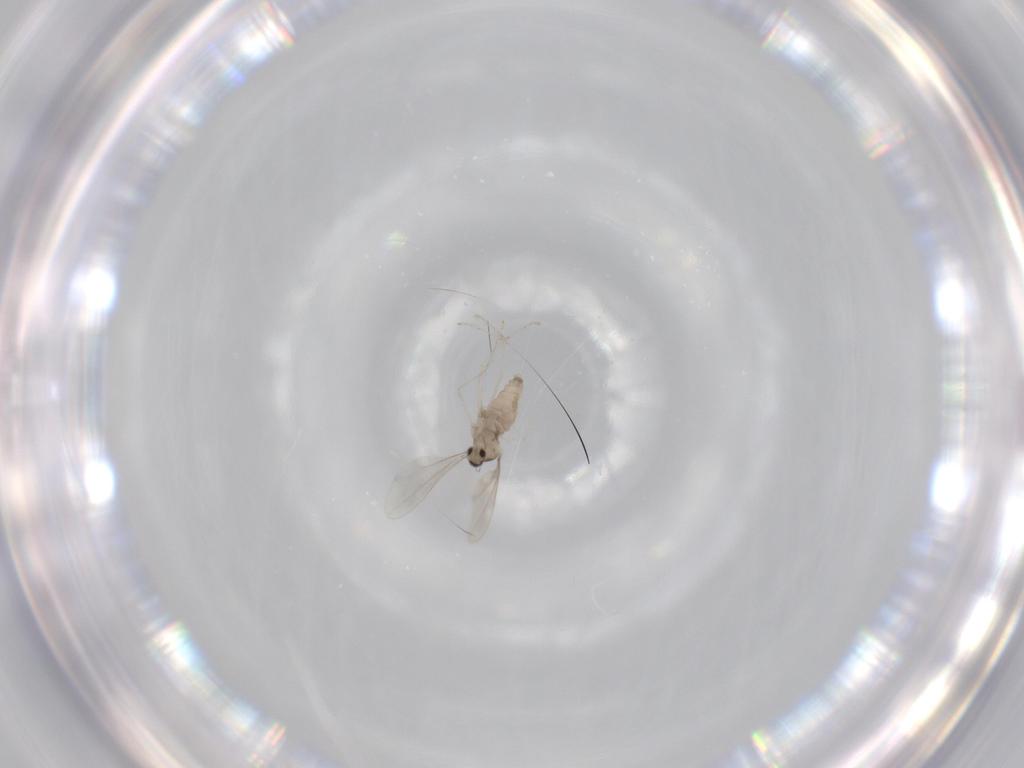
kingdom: Animalia
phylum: Arthropoda
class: Insecta
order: Diptera
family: Cecidomyiidae
